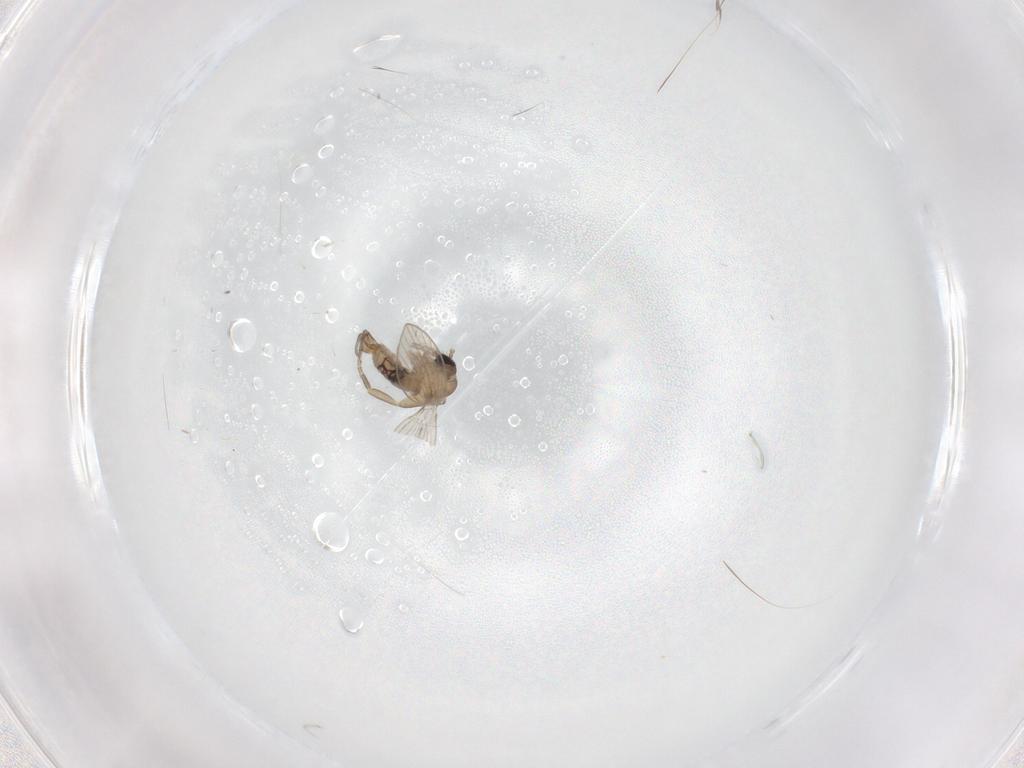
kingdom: Animalia
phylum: Arthropoda
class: Insecta
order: Diptera
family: Psychodidae
